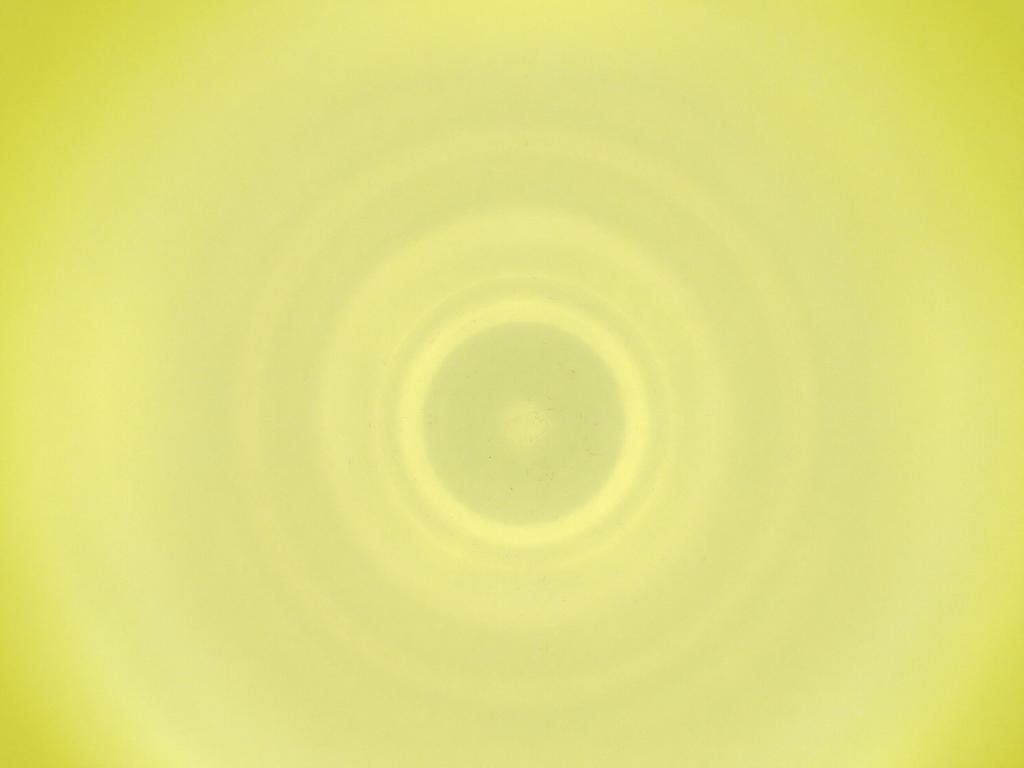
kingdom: Animalia
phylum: Arthropoda
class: Insecta
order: Diptera
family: Cecidomyiidae
